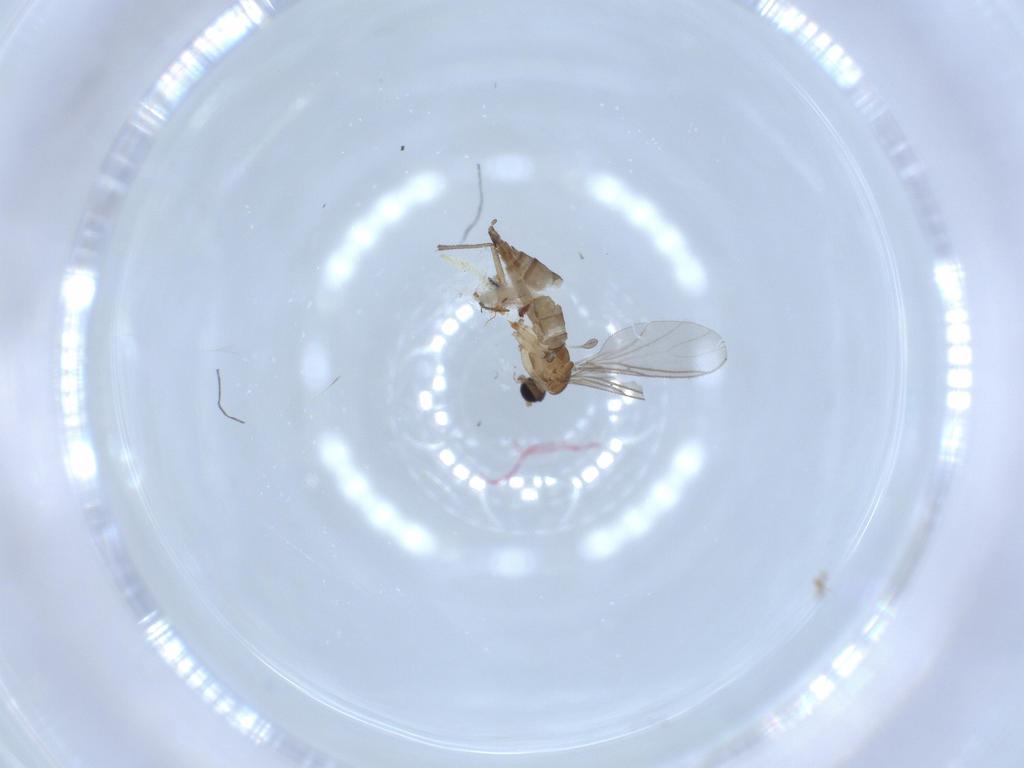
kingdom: Animalia
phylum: Arthropoda
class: Insecta
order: Diptera
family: Sciaridae
